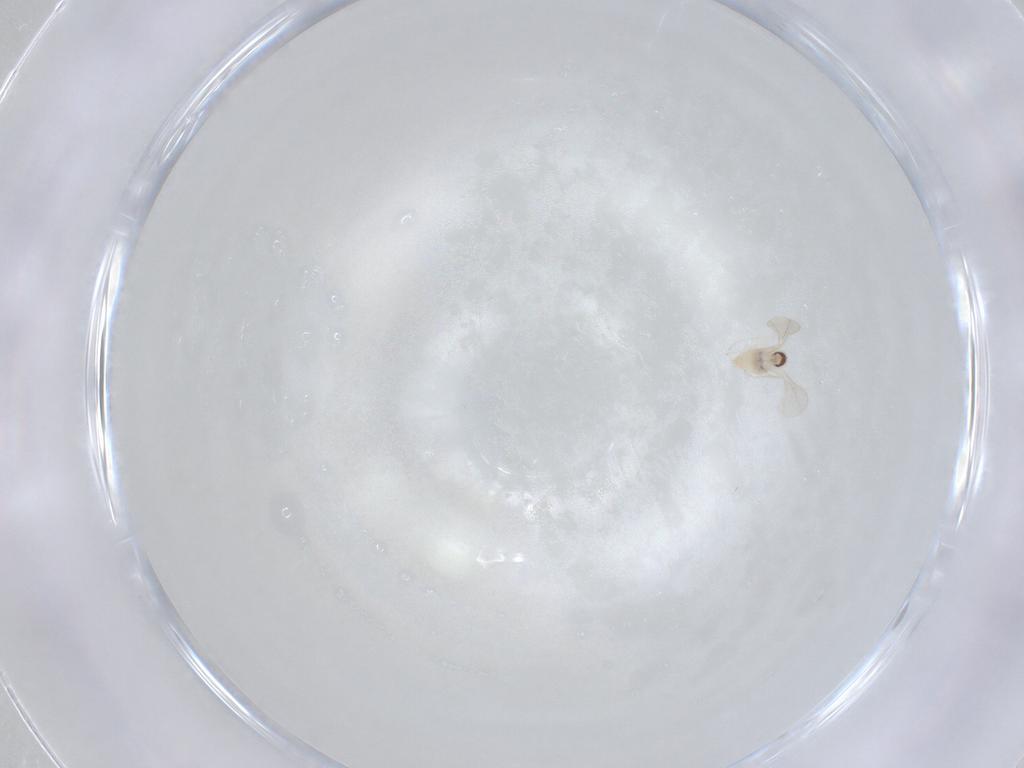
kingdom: Animalia
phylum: Arthropoda
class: Insecta
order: Diptera
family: Cecidomyiidae
